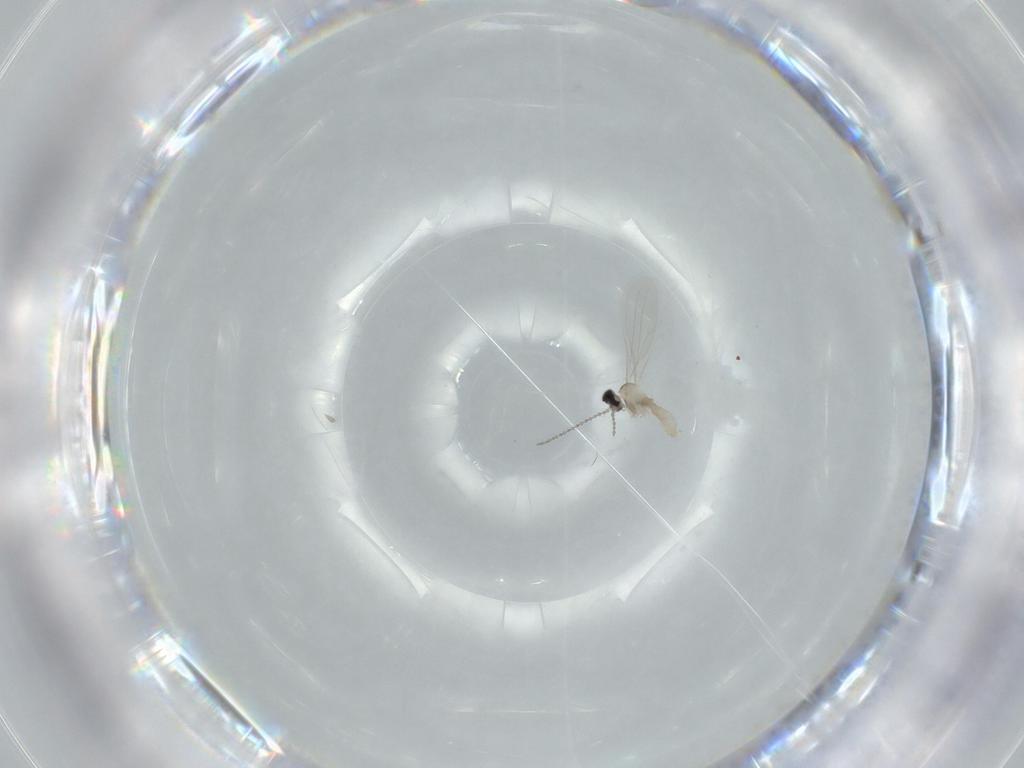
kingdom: Animalia
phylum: Arthropoda
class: Insecta
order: Diptera
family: Cecidomyiidae
